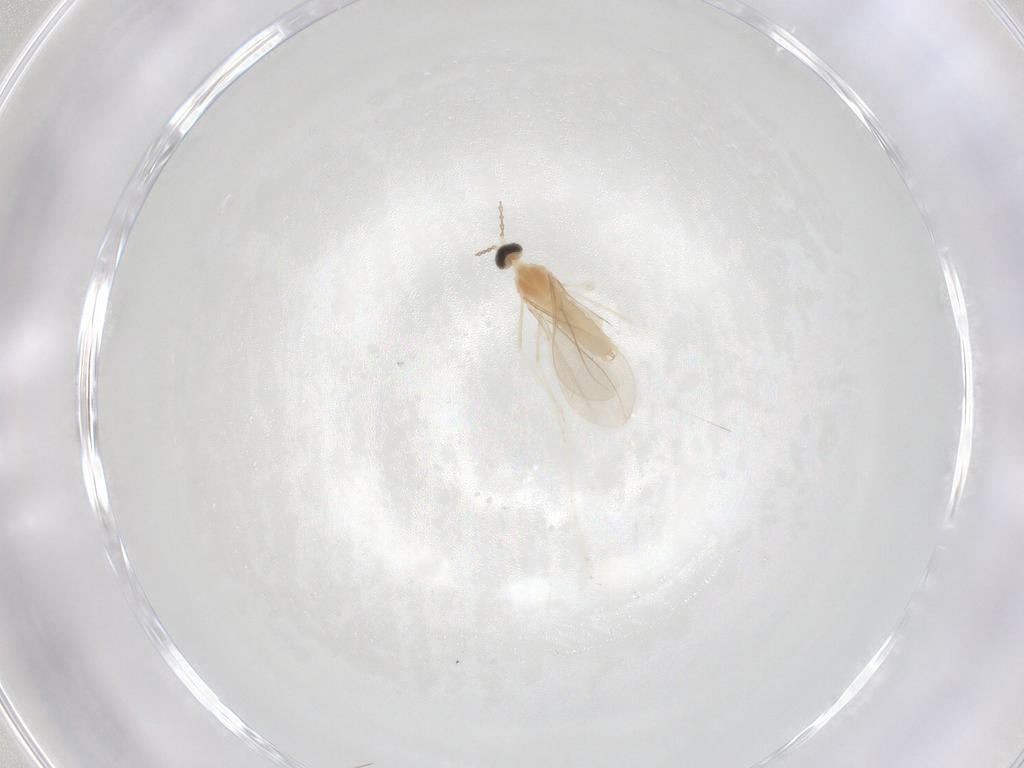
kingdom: Animalia
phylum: Arthropoda
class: Insecta
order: Diptera
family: Cecidomyiidae
